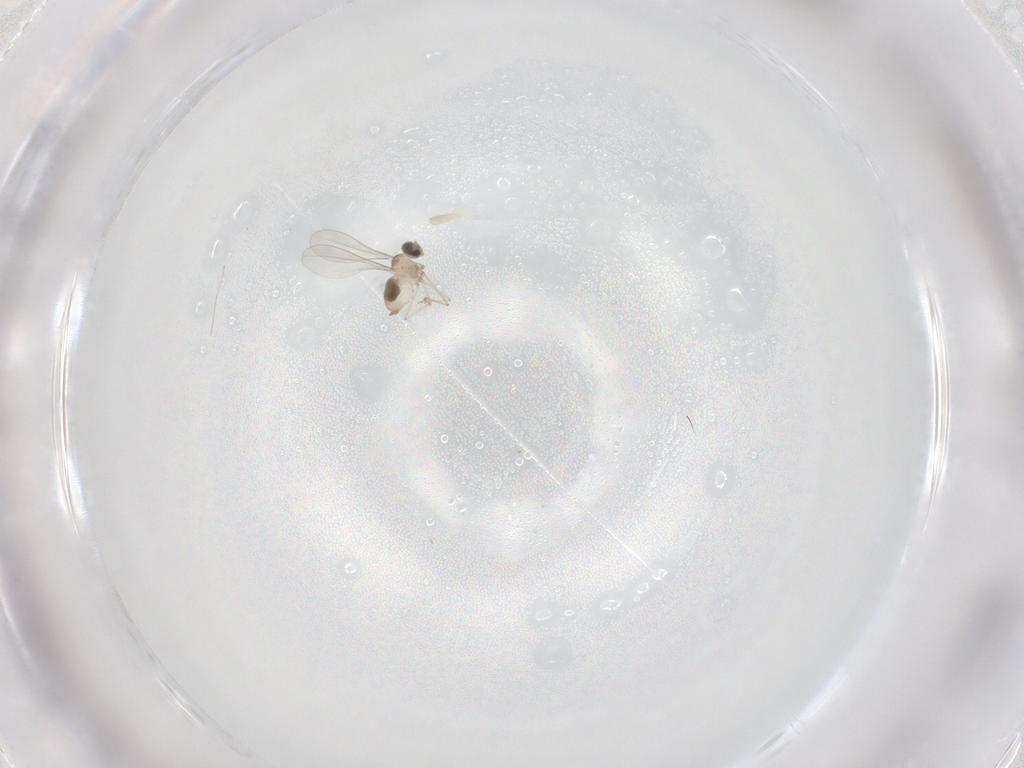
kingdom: Animalia
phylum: Arthropoda
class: Insecta
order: Diptera
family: Cecidomyiidae
